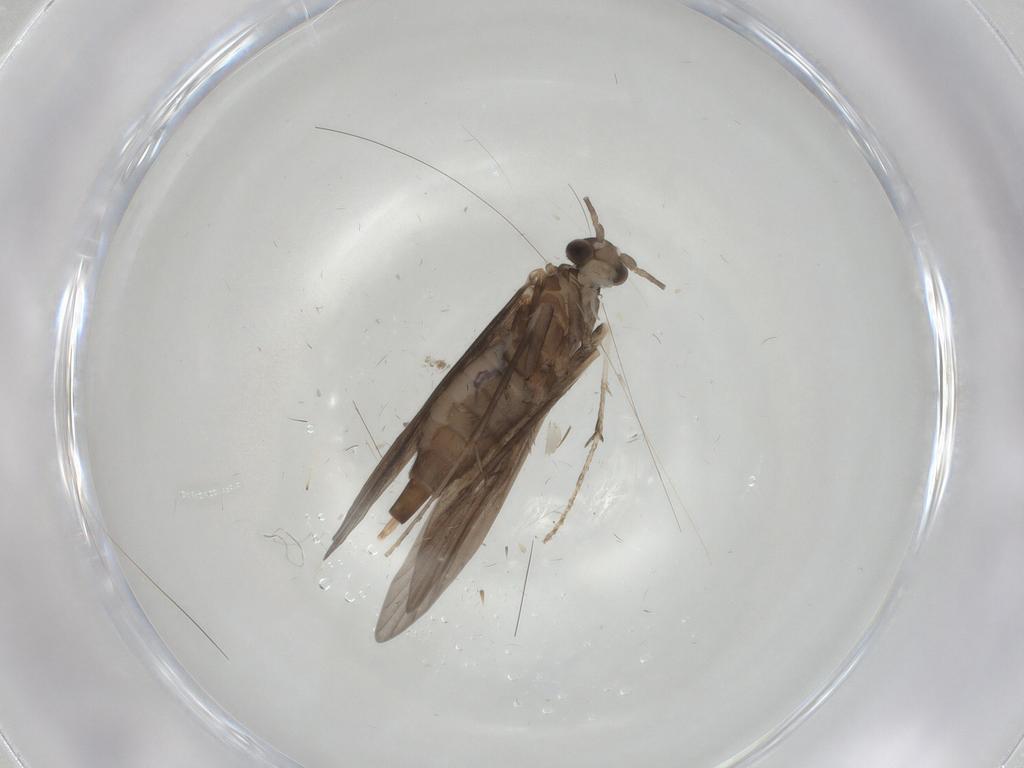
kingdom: Animalia
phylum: Arthropoda
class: Insecta
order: Trichoptera
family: Xiphocentronidae
